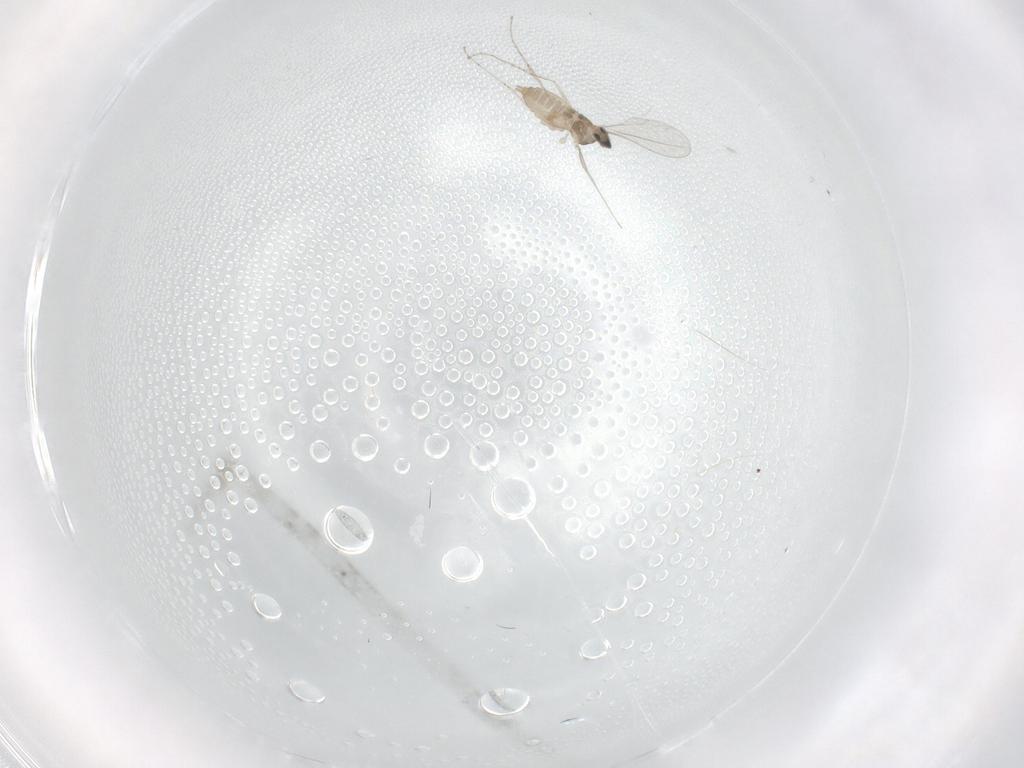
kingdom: Animalia
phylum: Arthropoda
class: Insecta
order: Diptera
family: Cecidomyiidae
